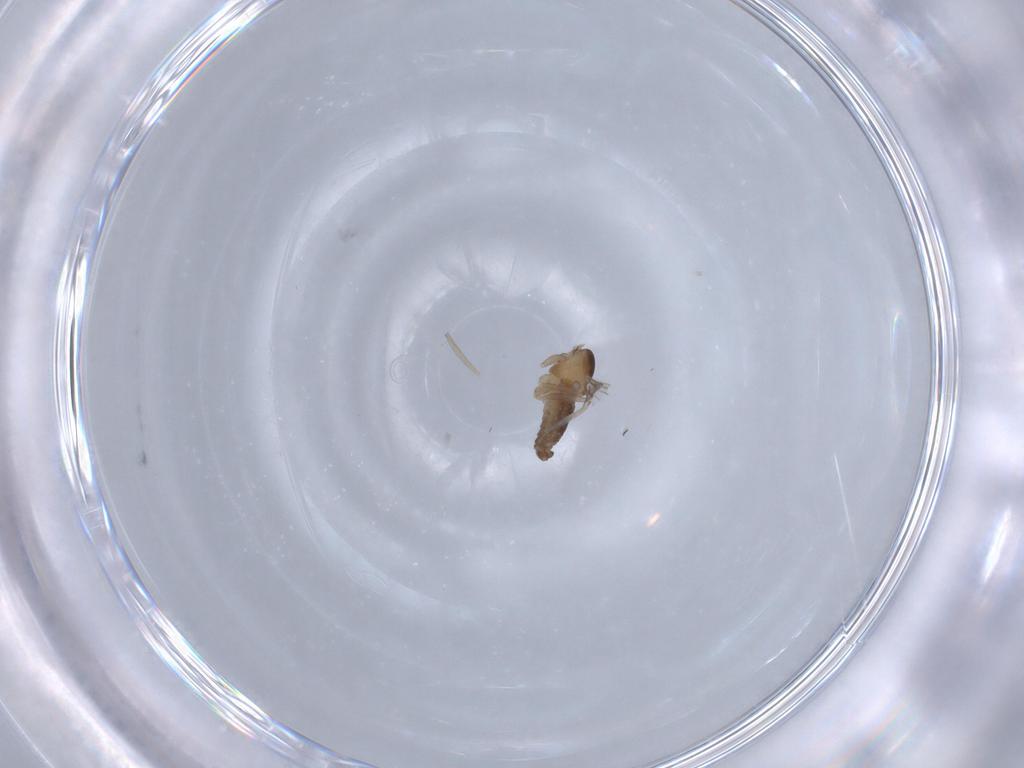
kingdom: Animalia
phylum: Arthropoda
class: Insecta
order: Diptera
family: Cecidomyiidae
